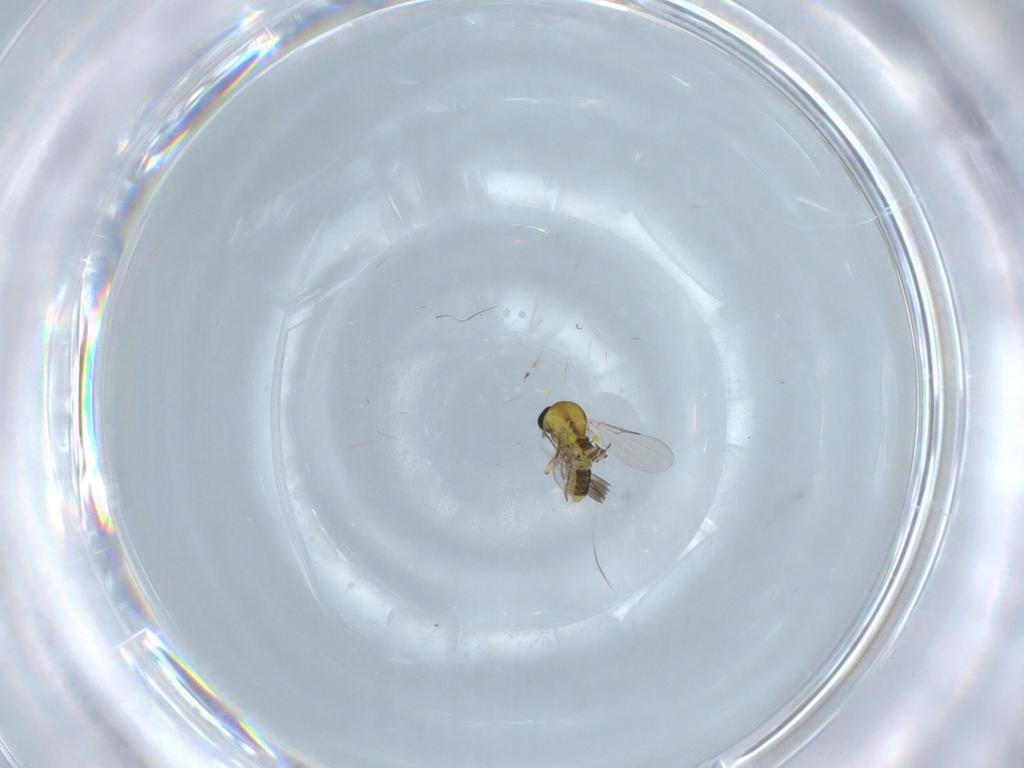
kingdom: Animalia
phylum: Arthropoda
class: Insecta
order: Diptera
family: Ceratopogonidae
